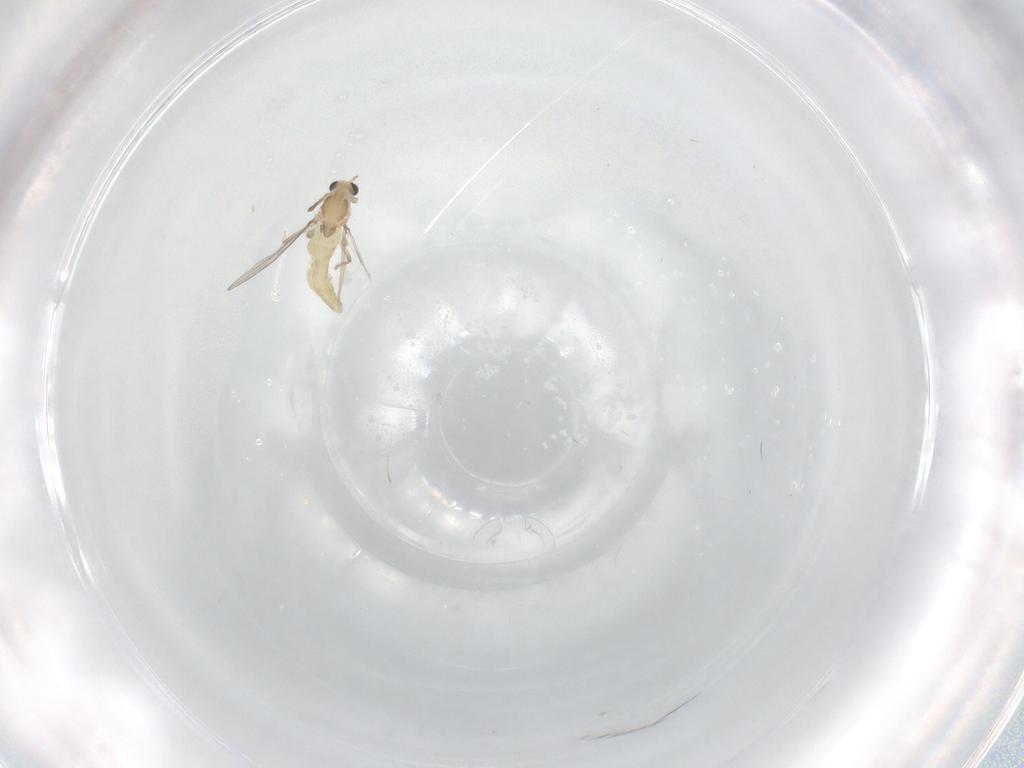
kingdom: Animalia
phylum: Arthropoda
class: Insecta
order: Diptera
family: Chironomidae
